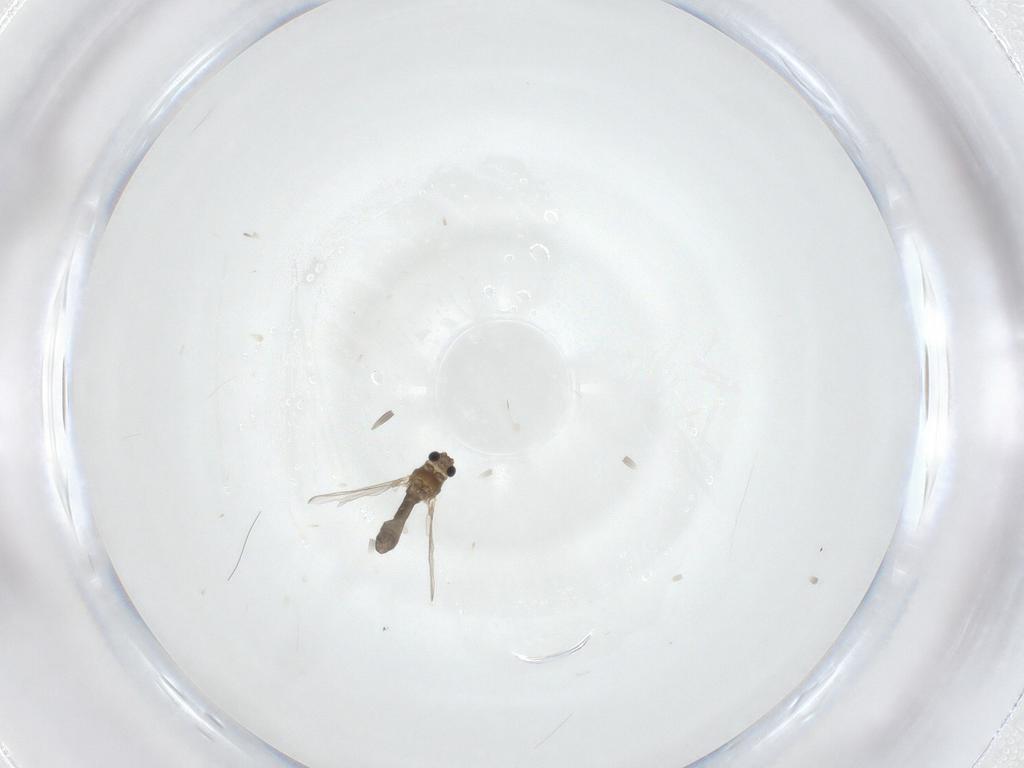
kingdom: Animalia
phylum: Arthropoda
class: Insecta
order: Diptera
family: Chironomidae
